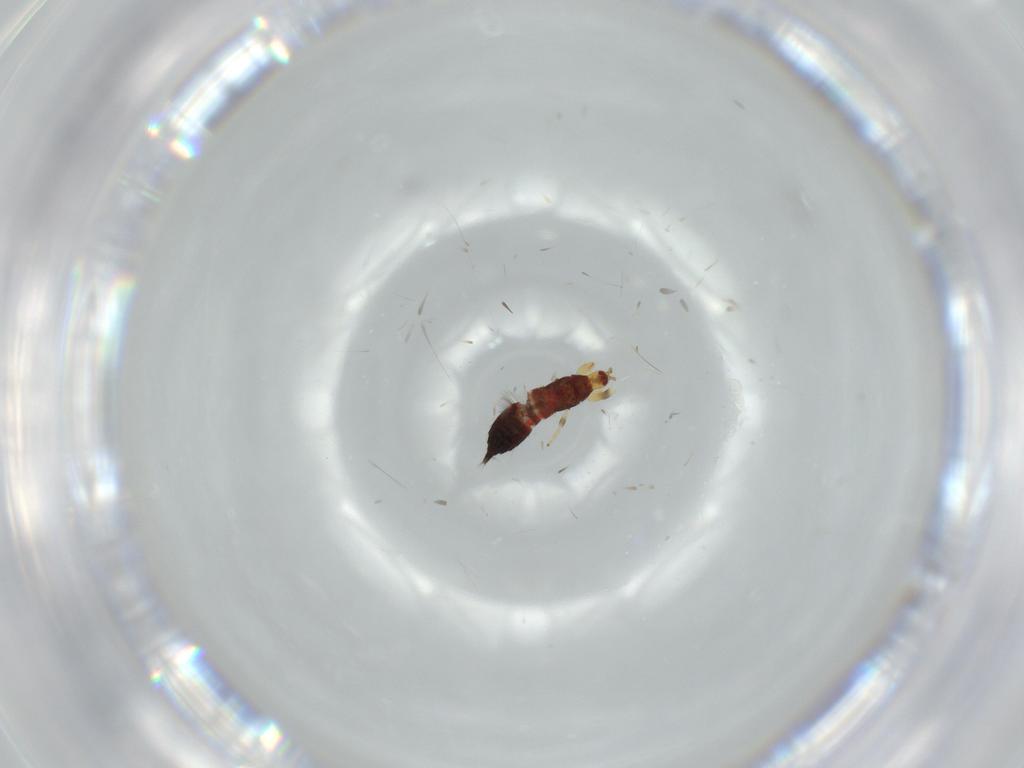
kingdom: Animalia
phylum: Arthropoda
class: Insecta
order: Thysanoptera
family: Phlaeothripidae
